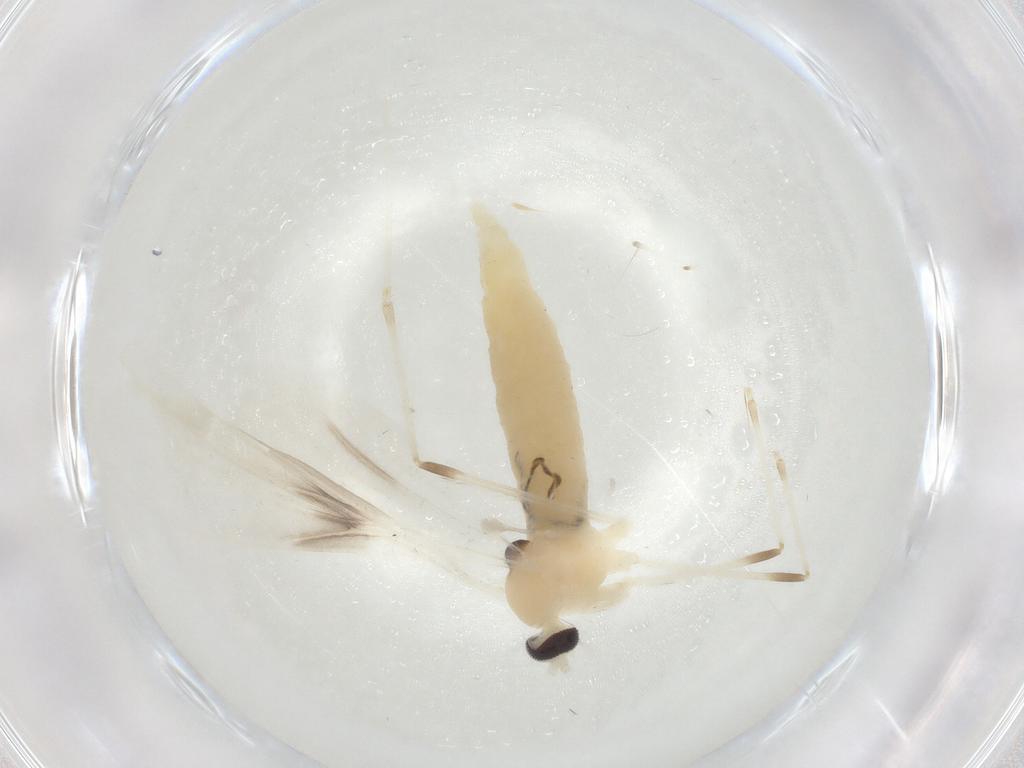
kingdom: Animalia
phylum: Arthropoda
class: Insecta
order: Diptera
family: Cecidomyiidae
